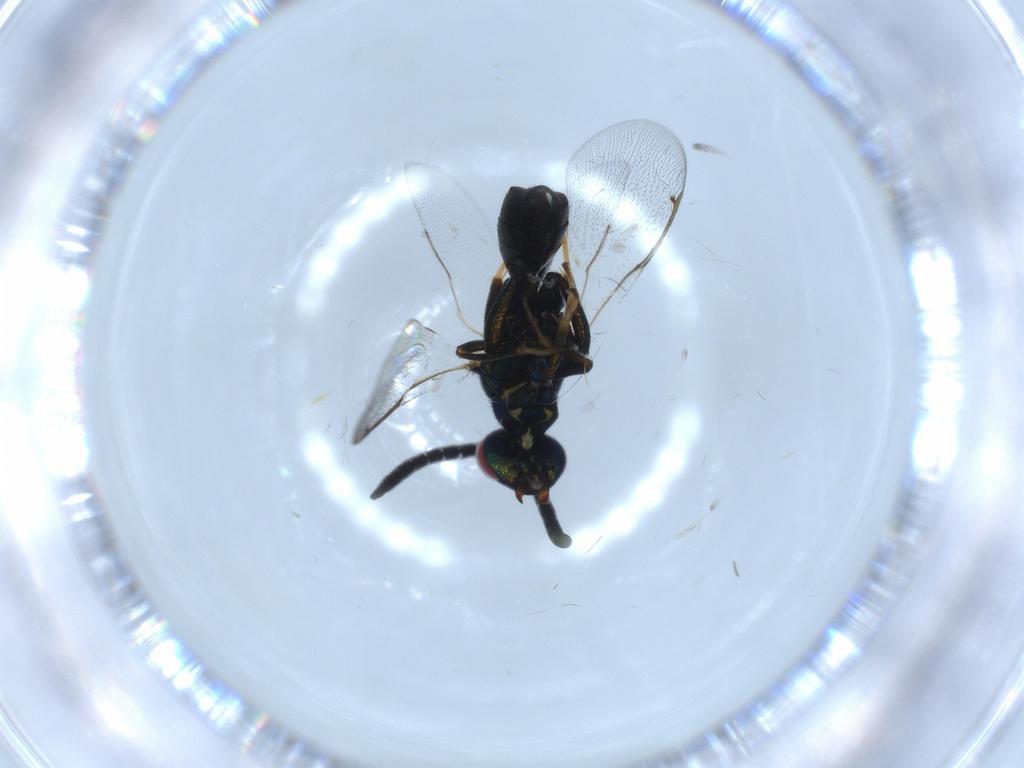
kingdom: Animalia
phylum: Arthropoda
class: Insecta
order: Hymenoptera
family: Torymidae
